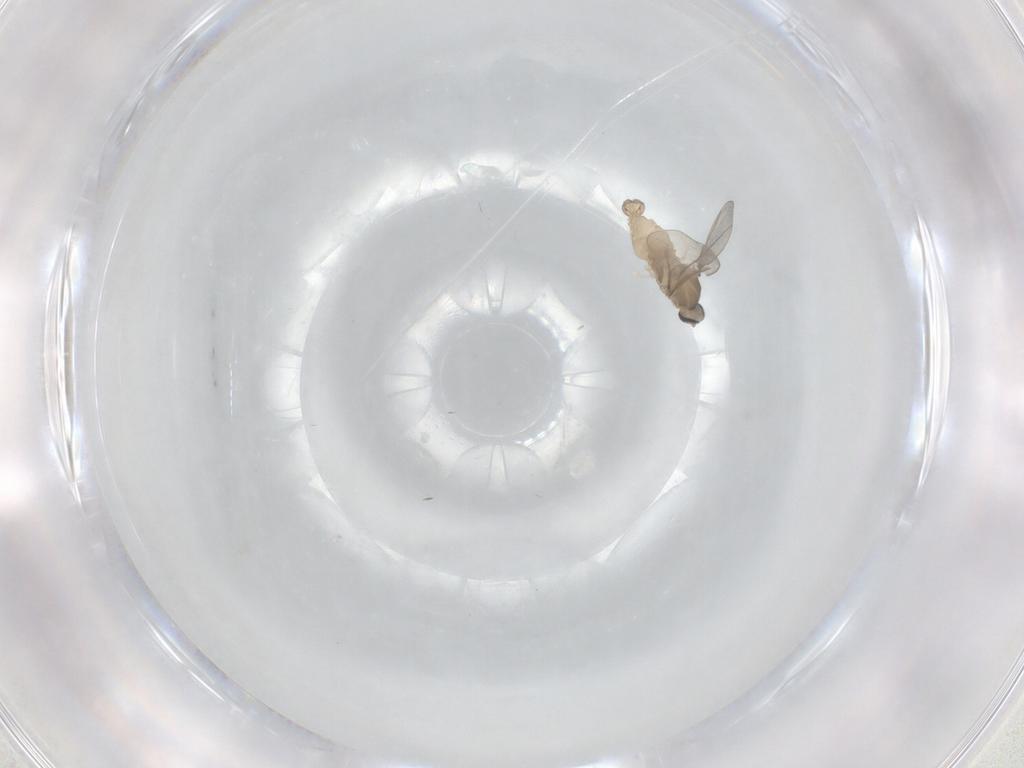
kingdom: Animalia
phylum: Arthropoda
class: Insecta
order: Diptera
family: Cecidomyiidae
